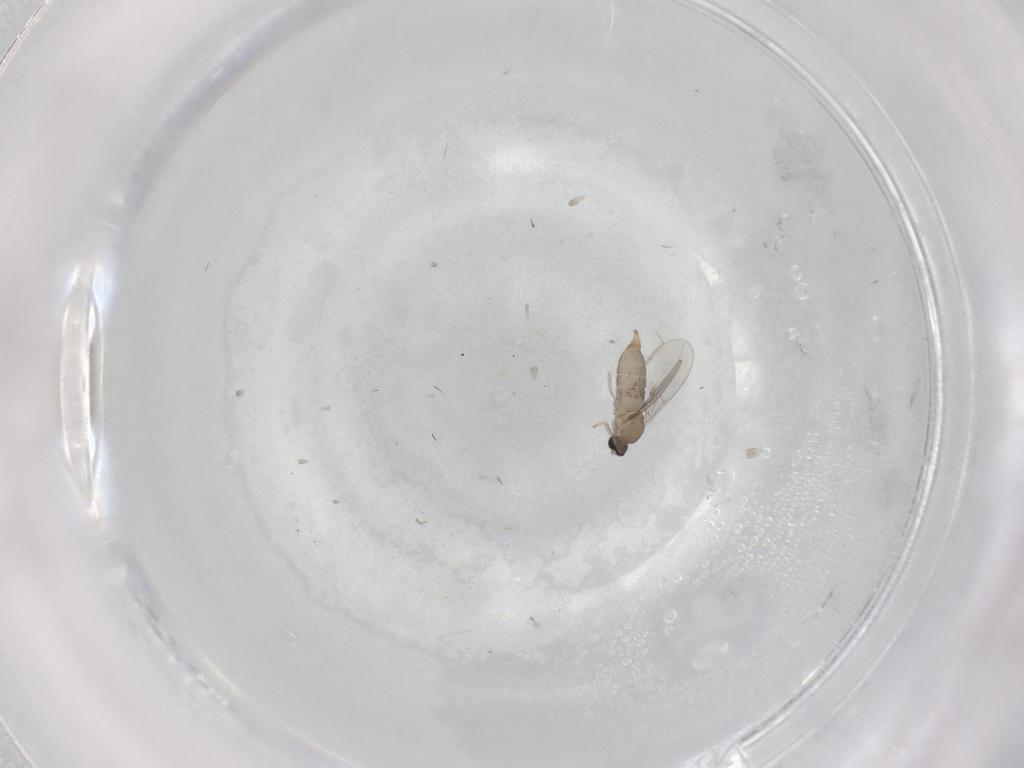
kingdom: Animalia
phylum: Arthropoda
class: Insecta
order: Diptera
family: Cecidomyiidae
